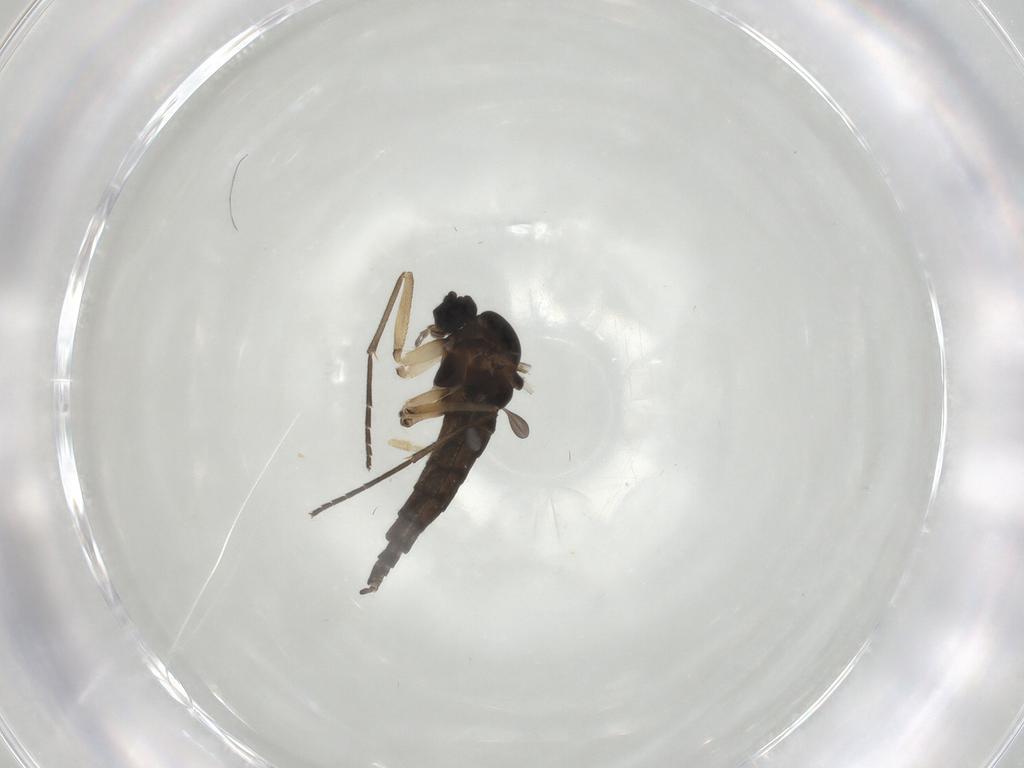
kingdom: Animalia
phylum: Arthropoda
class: Insecta
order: Diptera
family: Sciaridae
